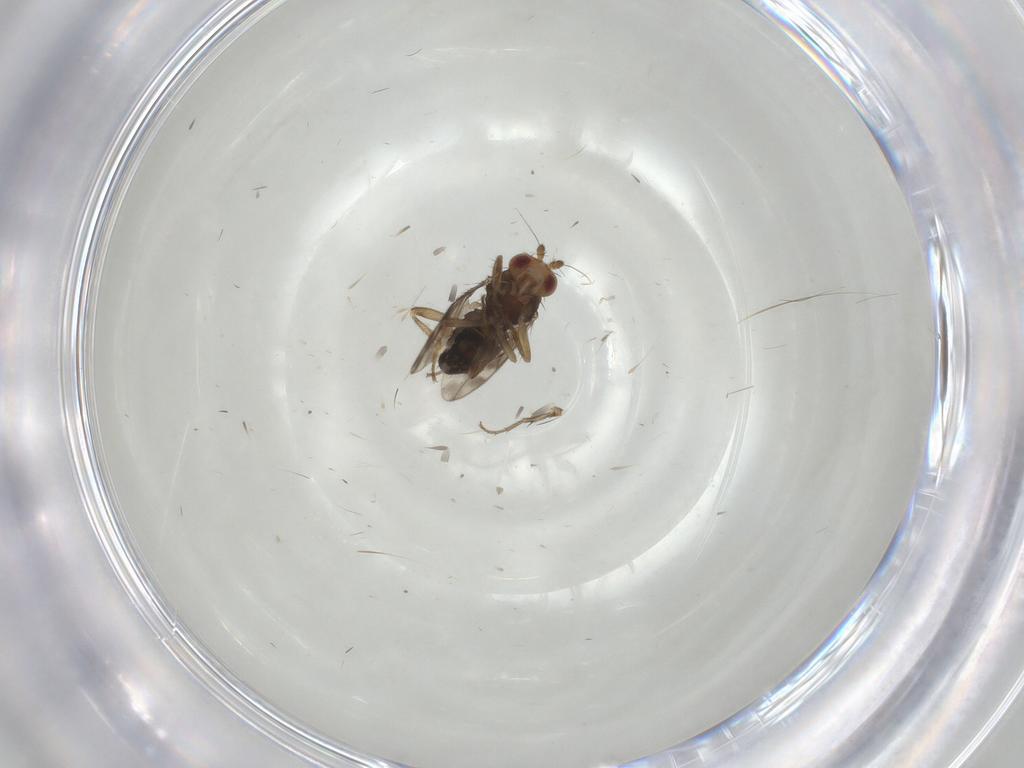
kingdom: Animalia
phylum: Arthropoda
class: Insecta
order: Diptera
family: Sphaeroceridae
